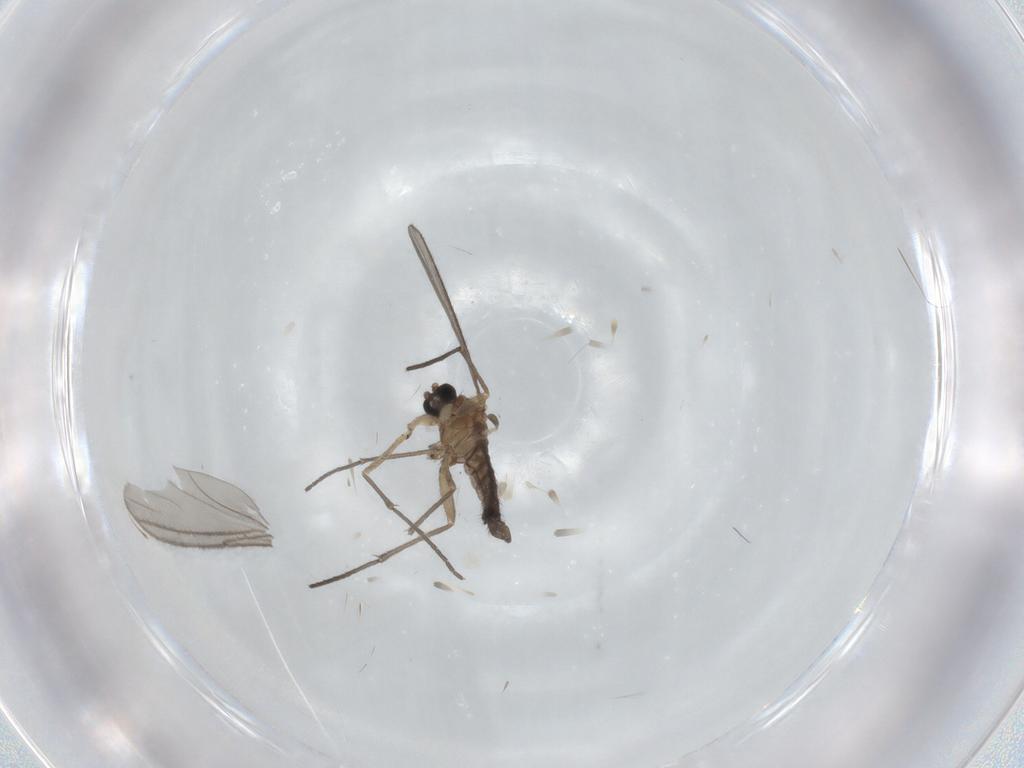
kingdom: Animalia
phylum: Arthropoda
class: Insecta
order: Diptera
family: Sciaridae
